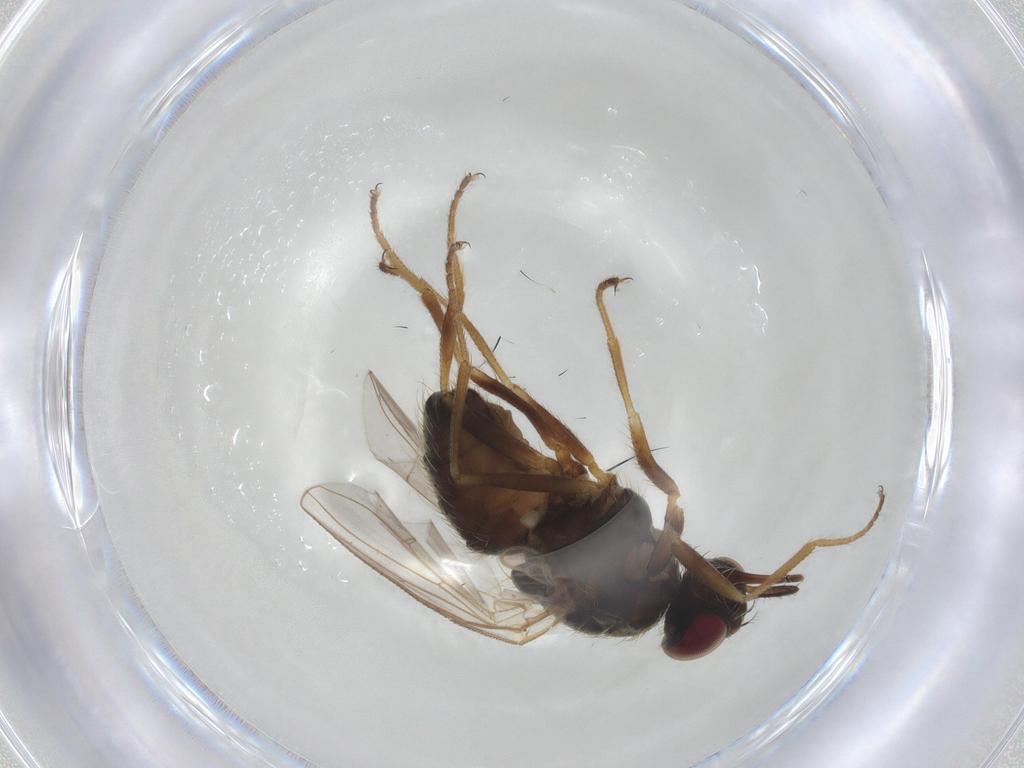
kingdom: Animalia
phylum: Arthropoda
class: Insecta
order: Diptera
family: Muscidae
